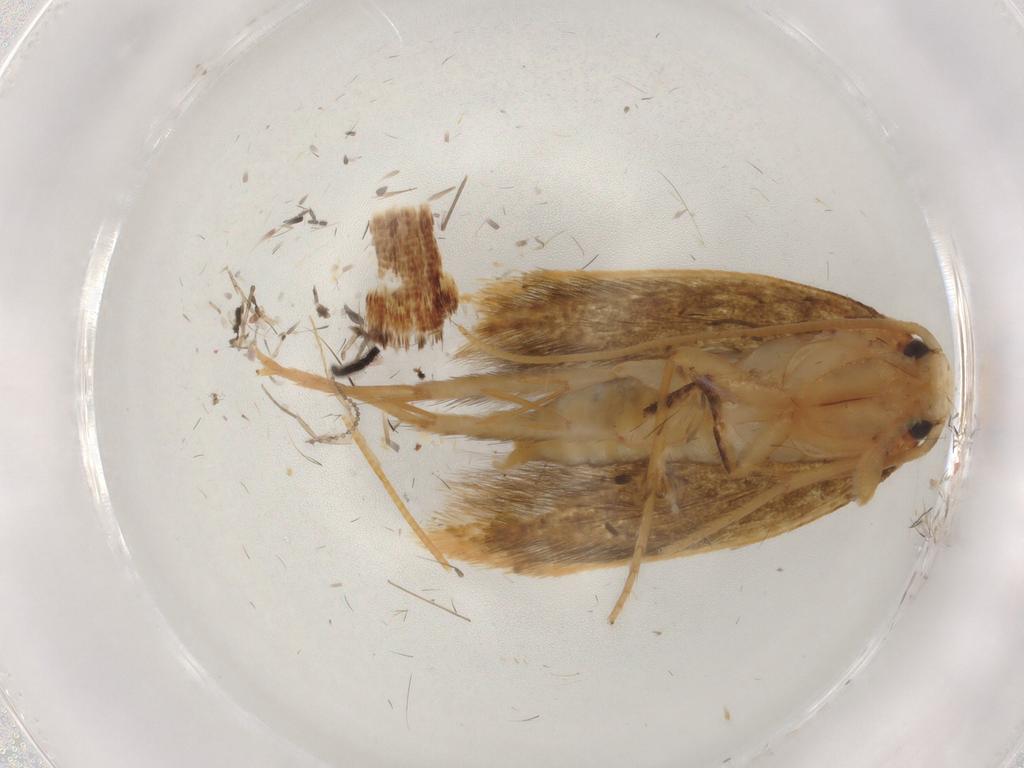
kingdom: Animalia
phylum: Arthropoda
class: Insecta
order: Lepidoptera
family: Tineidae
